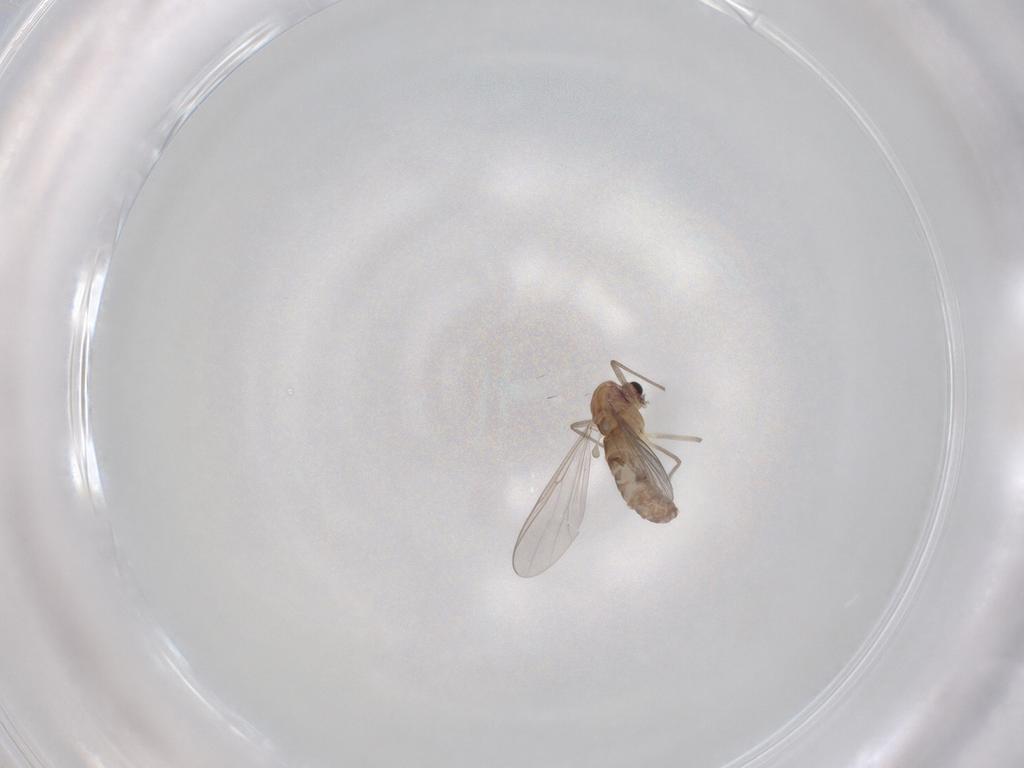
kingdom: Animalia
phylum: Arthropoda
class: Insecta
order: Diptera
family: Chironomidae
